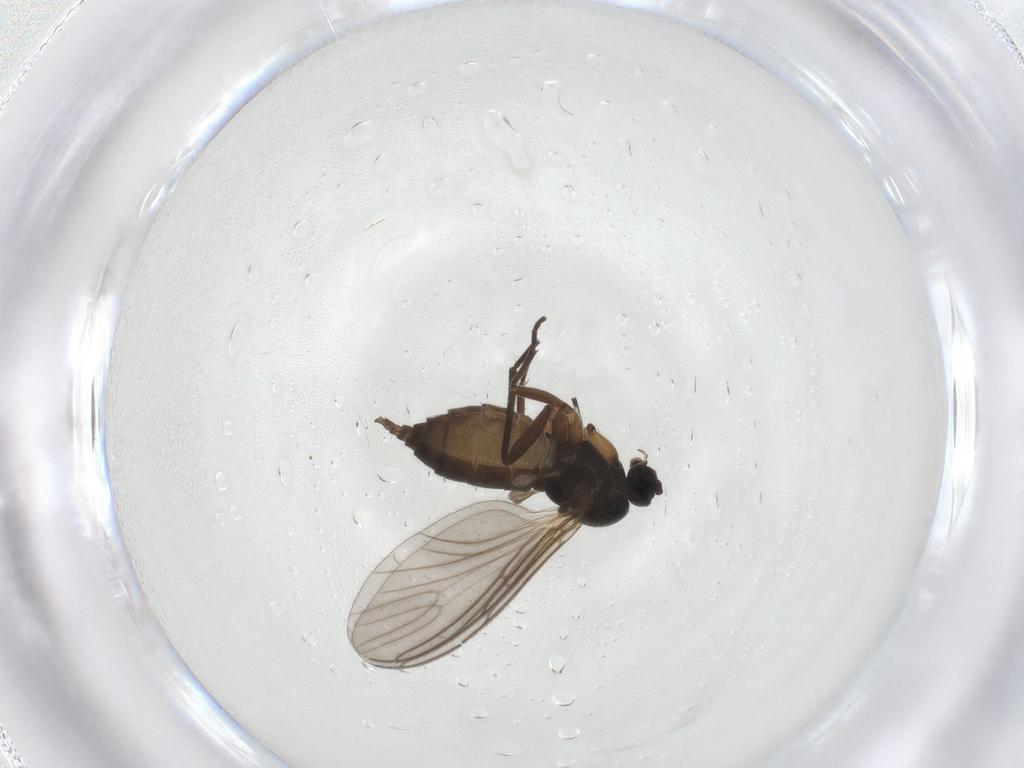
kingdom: Animalia
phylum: Arthropoda
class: Insecta
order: Diptera
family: Sciaridae
